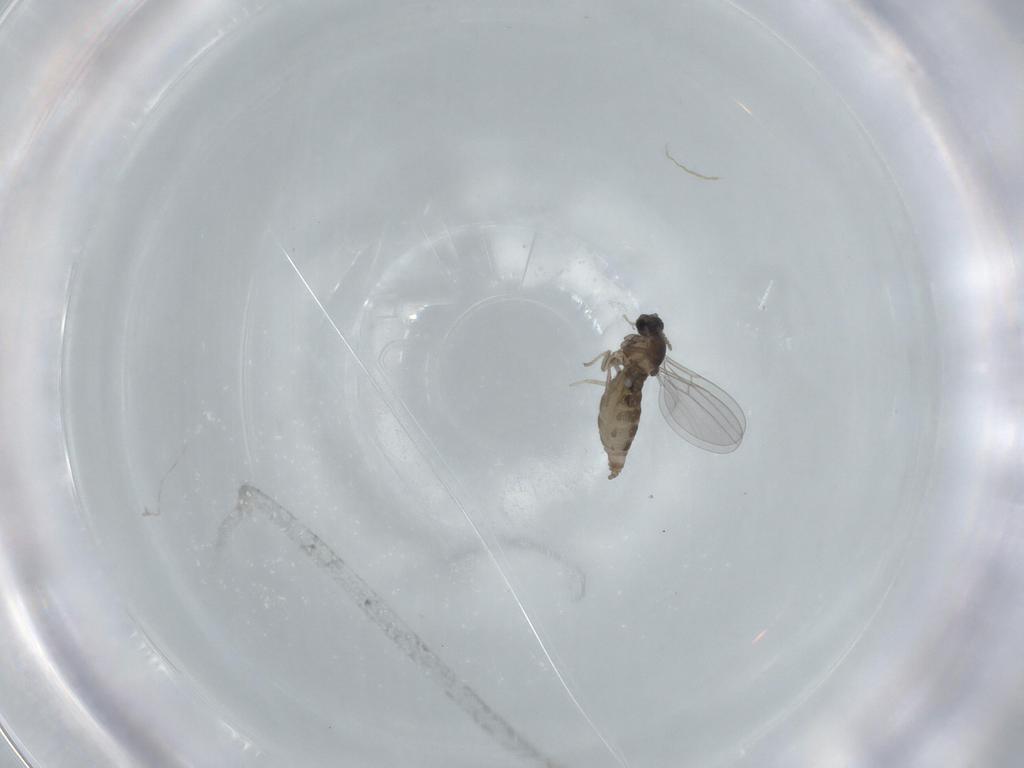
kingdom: Animalia
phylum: Arthropoda
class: Insecta
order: Diptera
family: Cecidomyiidae
